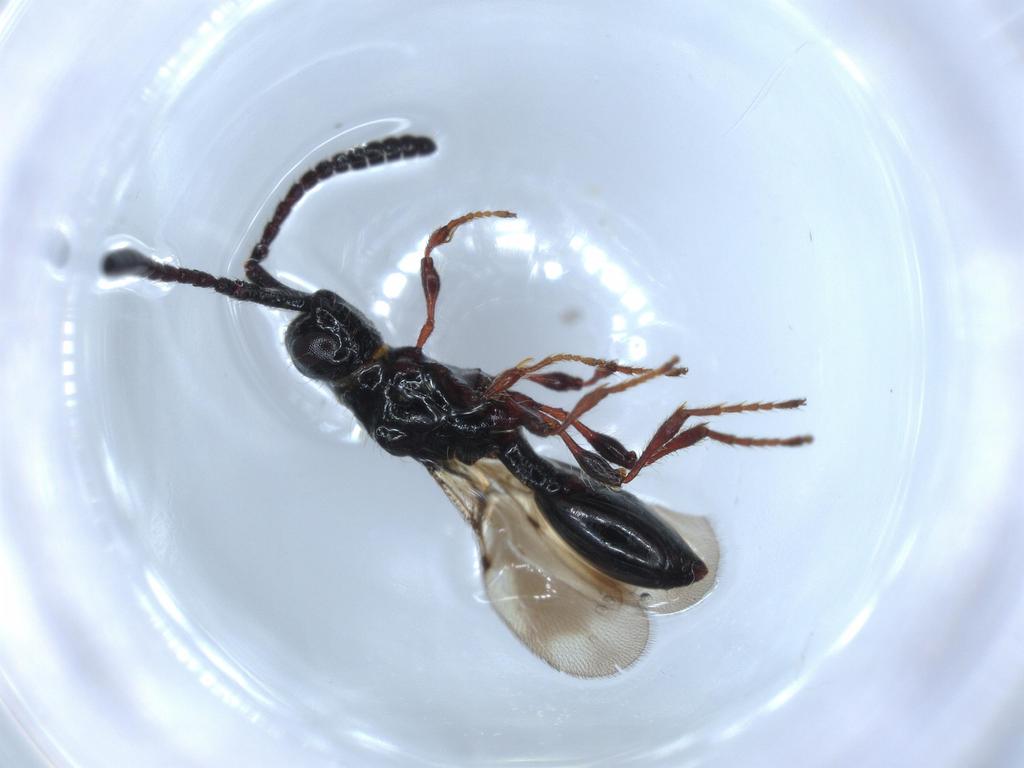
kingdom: Animalia
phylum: Arthropoda
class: Insecta
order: Hymenoptera
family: Diapriidae
